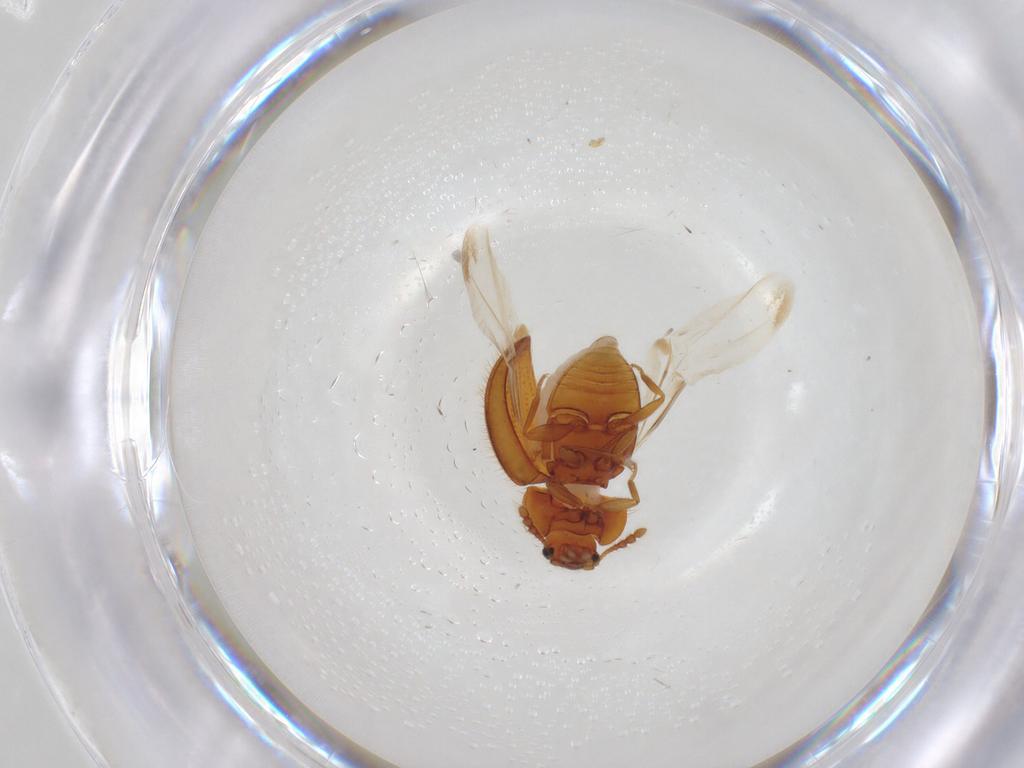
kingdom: Animalia
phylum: Arthropoda
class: Insecta
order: Coleoptera
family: Anamorphidae
